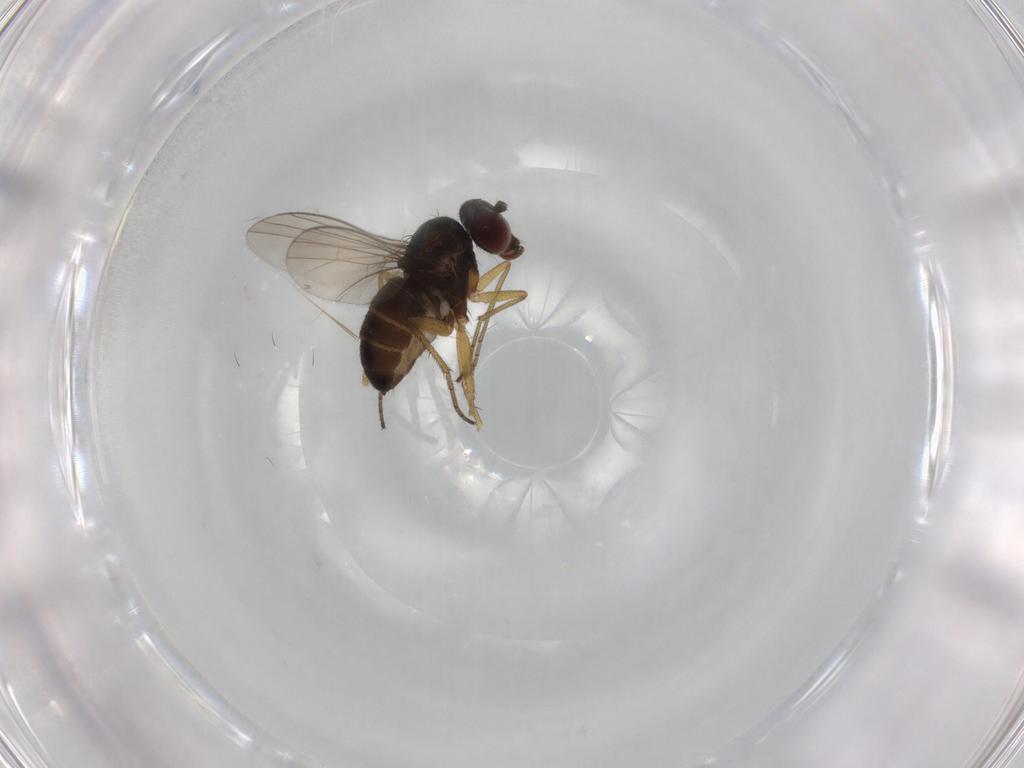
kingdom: Animalia
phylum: Arthropoda
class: Insecta
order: Diptera
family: Dolichopodidae
